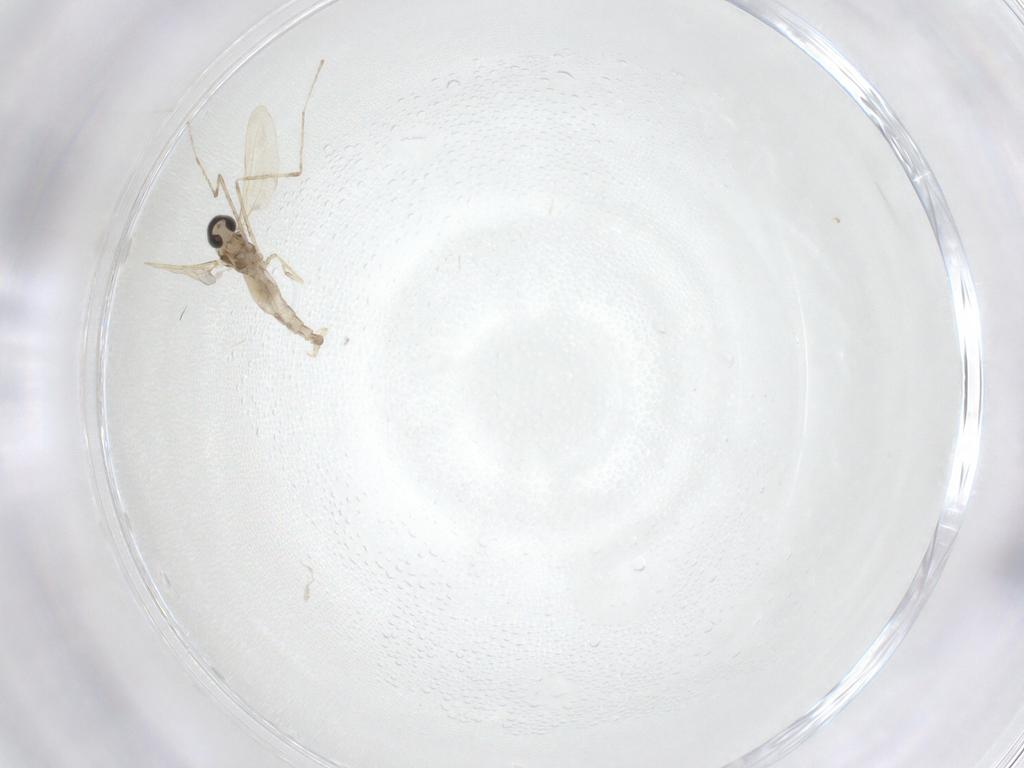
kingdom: Animalia
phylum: Arthropoda
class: Insecta
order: Diptera
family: Cecidomyiidae
